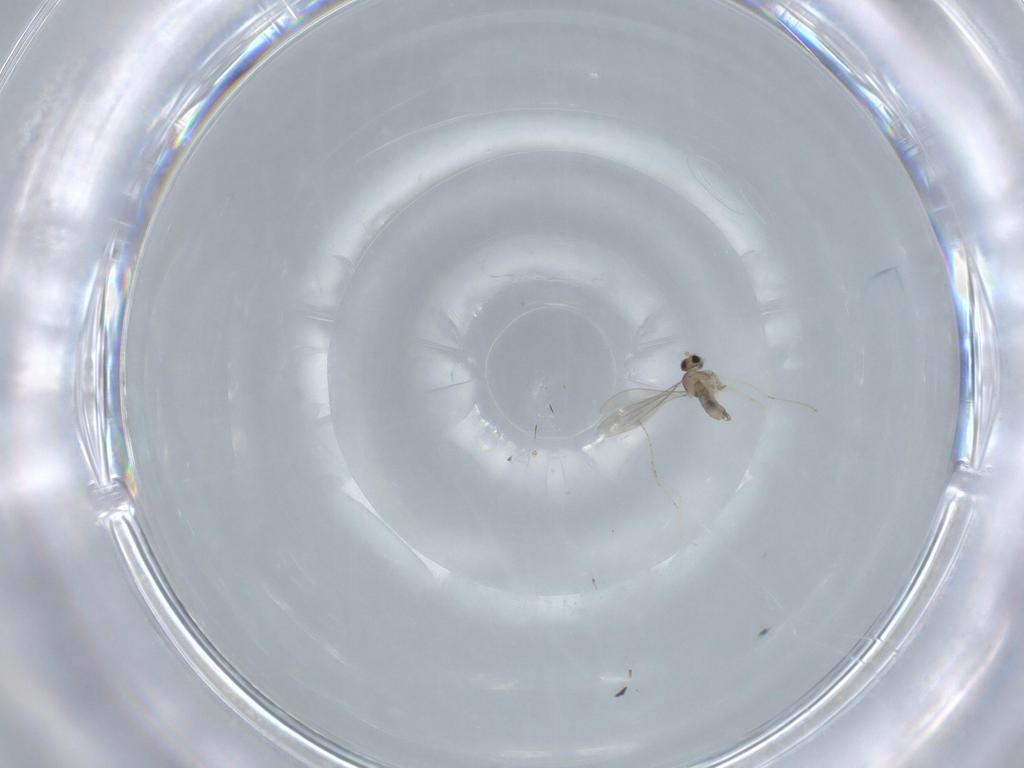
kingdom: Animalia
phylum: Arthropoda
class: Insecta
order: Diptera
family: Cecidomyiidae
